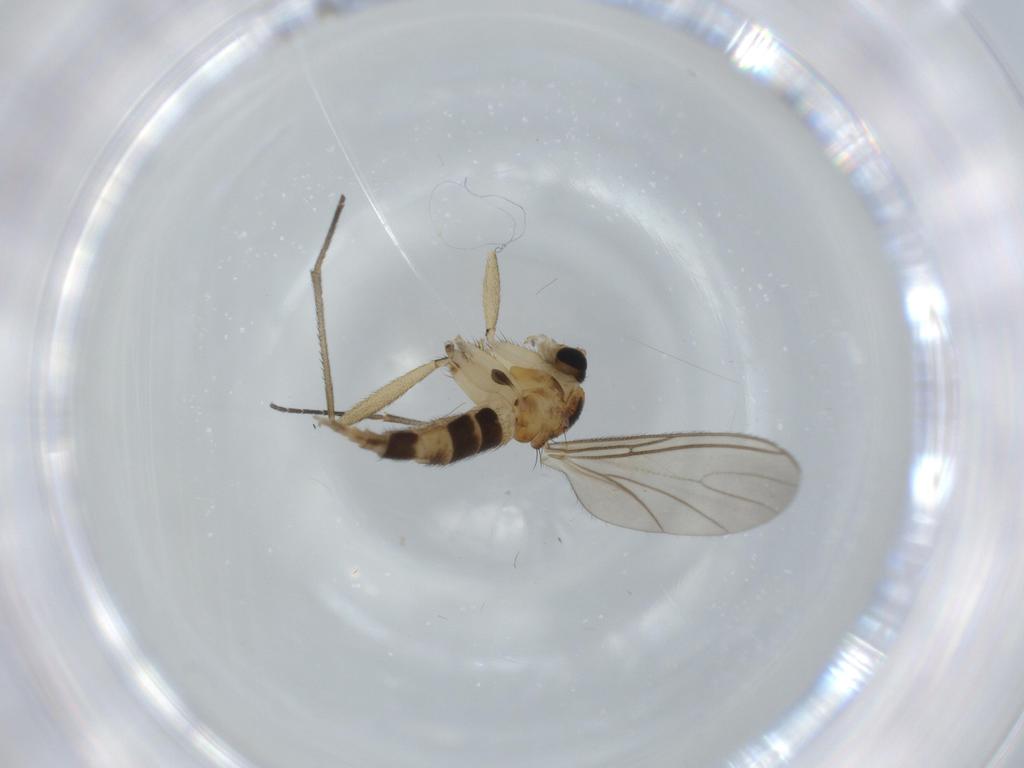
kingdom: Animalia
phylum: Arthropoda
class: Insecta
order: Diptera
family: Sciaridae
